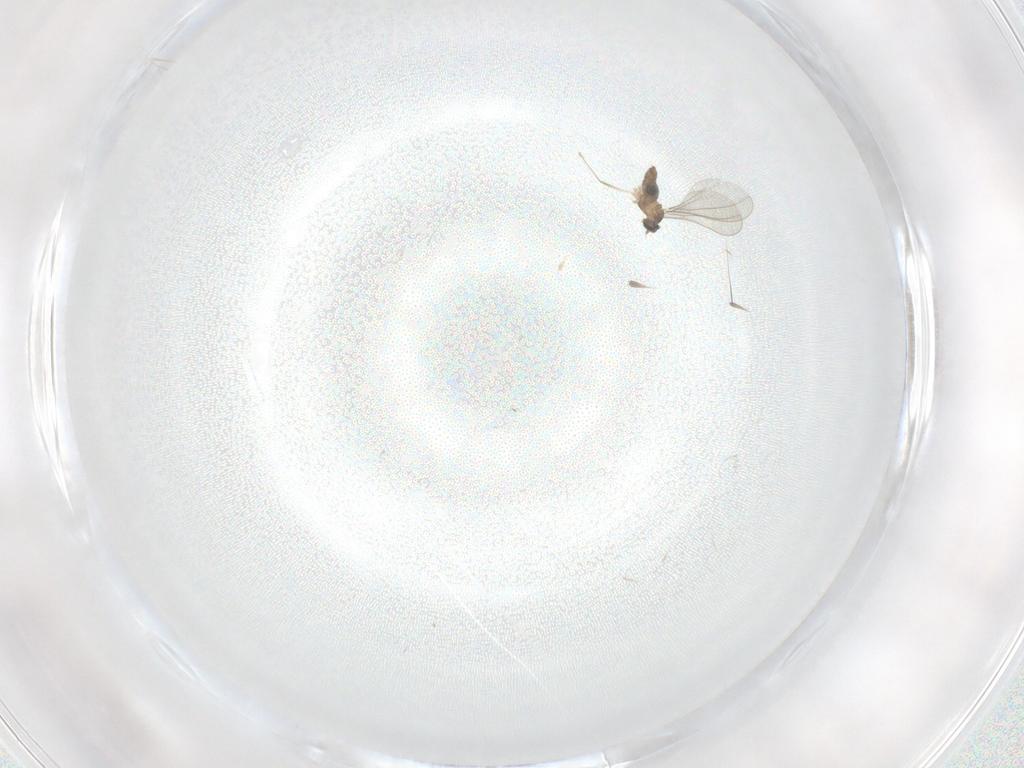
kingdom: Animalia
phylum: Arthropoda
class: Insecta
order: Diptera
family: Cecidomyiidae
